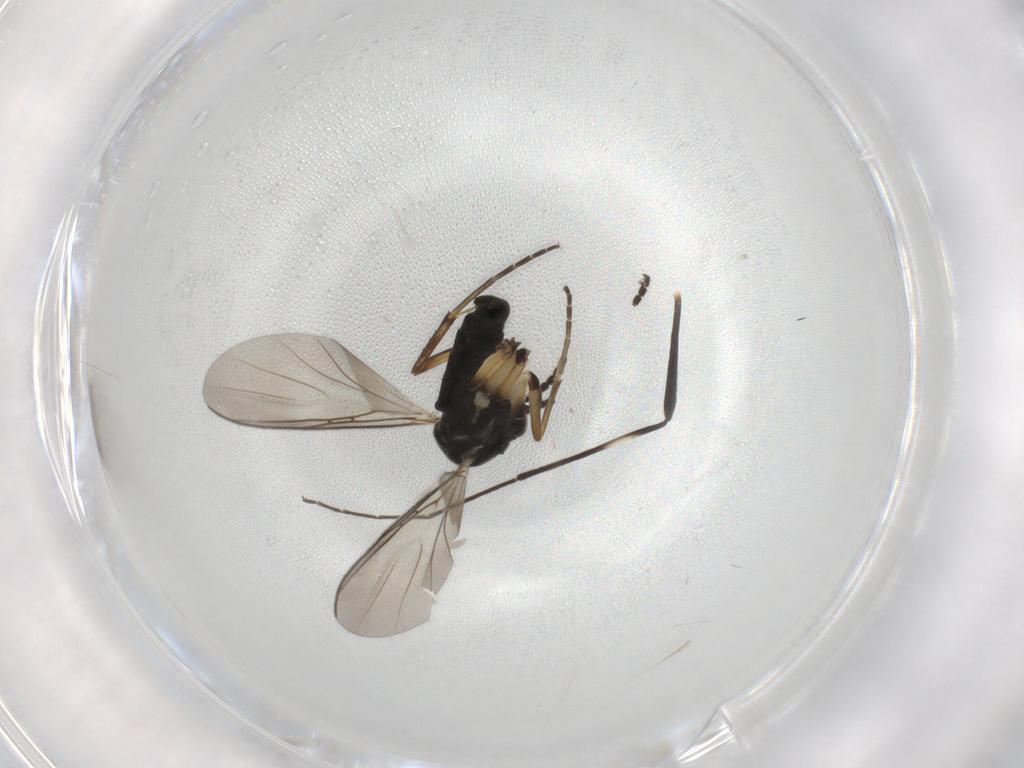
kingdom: Animalia
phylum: Arthropoda
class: Insecta
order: Diptera
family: Mycetophilidae
